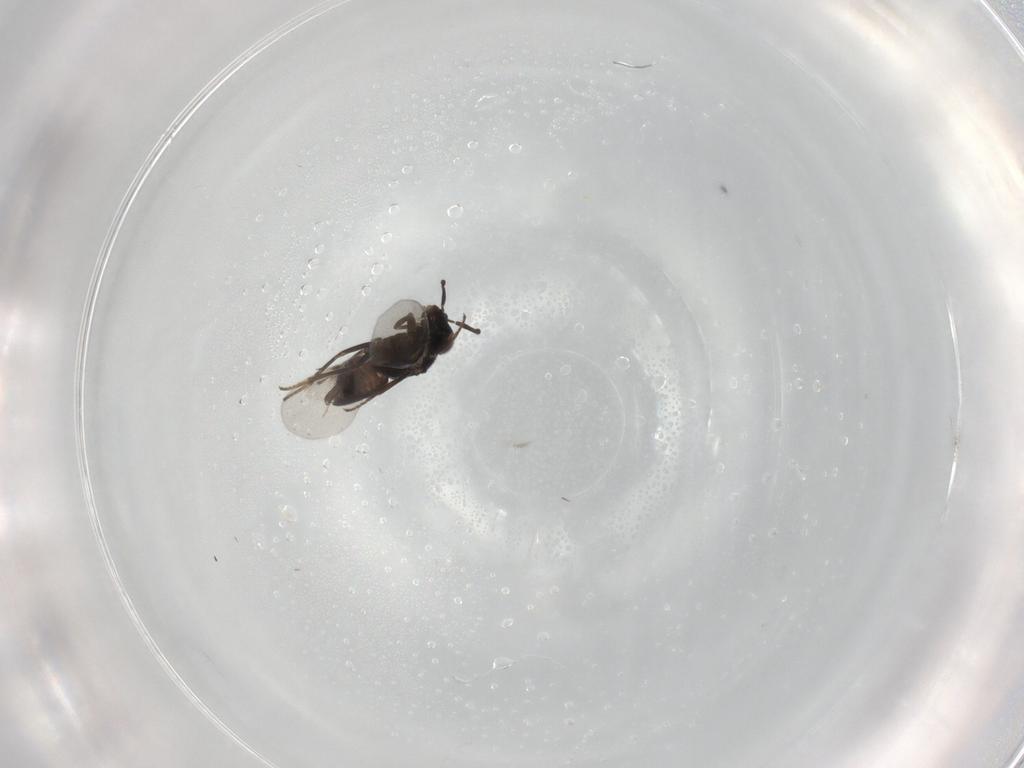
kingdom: Animalia
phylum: Arthropoda
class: Insecta
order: Hymenoptera
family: Encyrtidae
